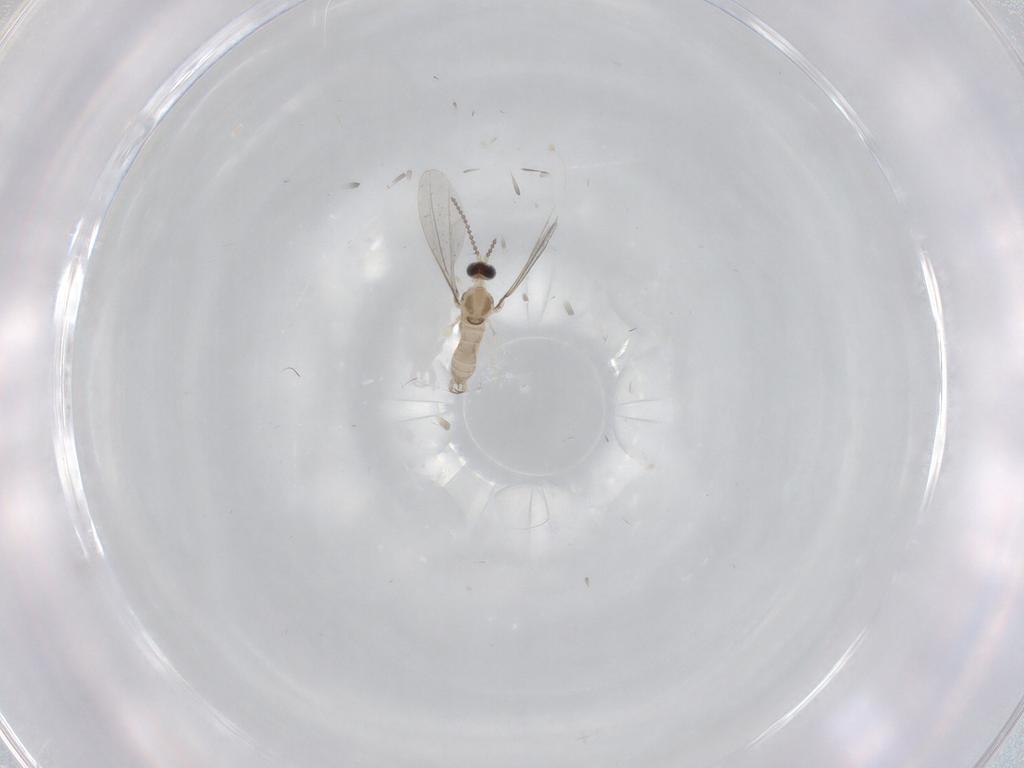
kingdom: Animalia
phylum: Arthropoda
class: Insecta
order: Diptera
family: Cecidomyiidae
